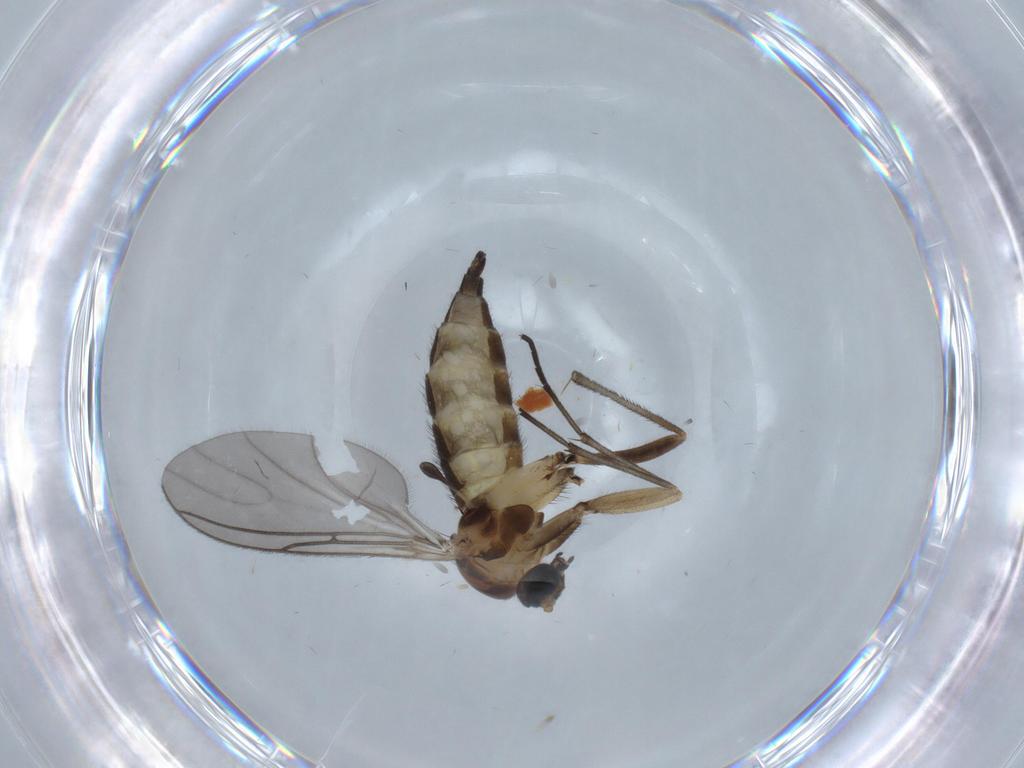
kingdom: Animalia
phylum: Arthropoda
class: Insecta
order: Diptera
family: Sciaridae
